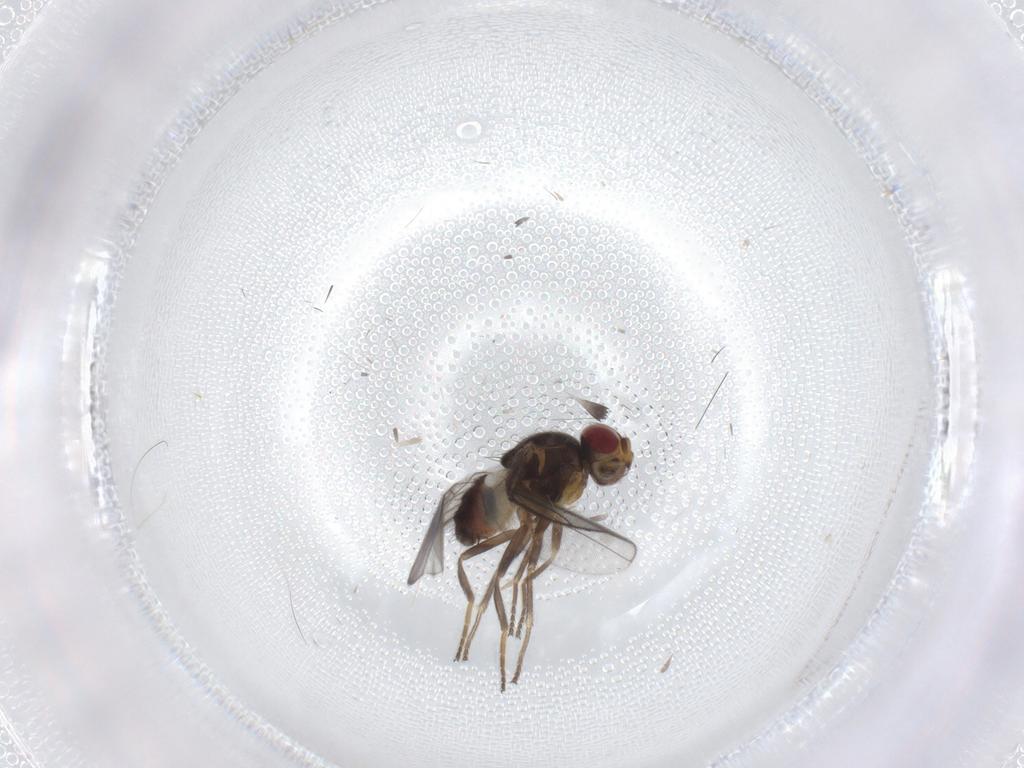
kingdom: Animalia
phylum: Arthropoda
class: Insecta
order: Diptera
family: Chloropidae
